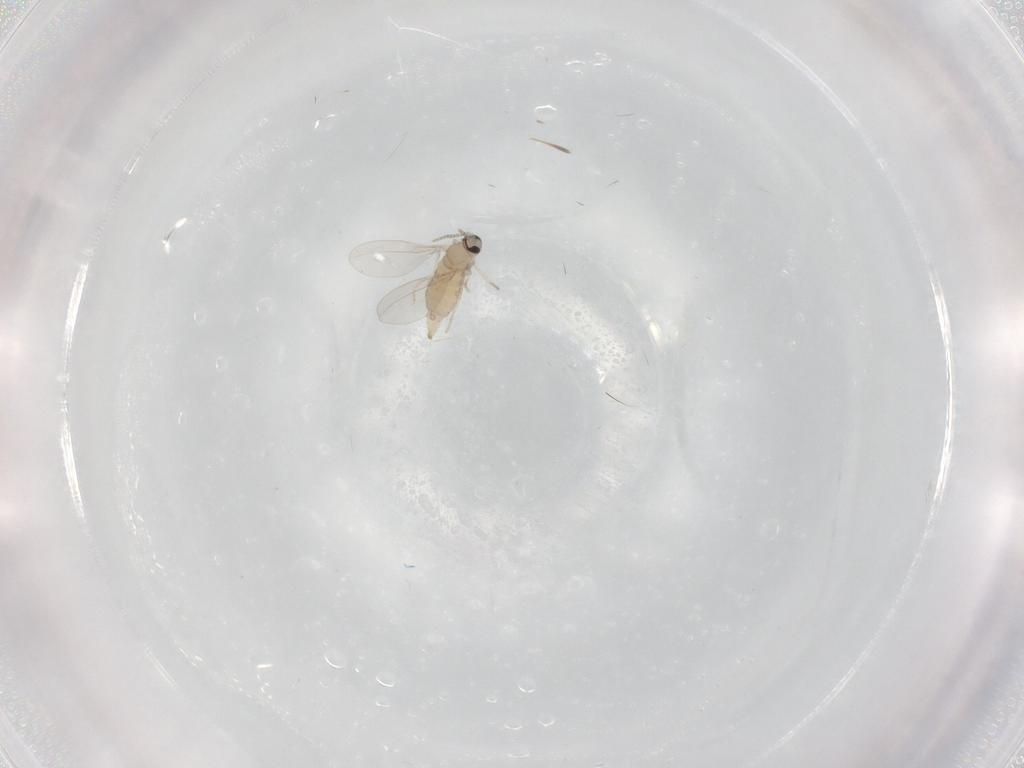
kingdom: Animalia
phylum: Arthropoda
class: Insecta
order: Diptera
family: Cecidomyiidae
